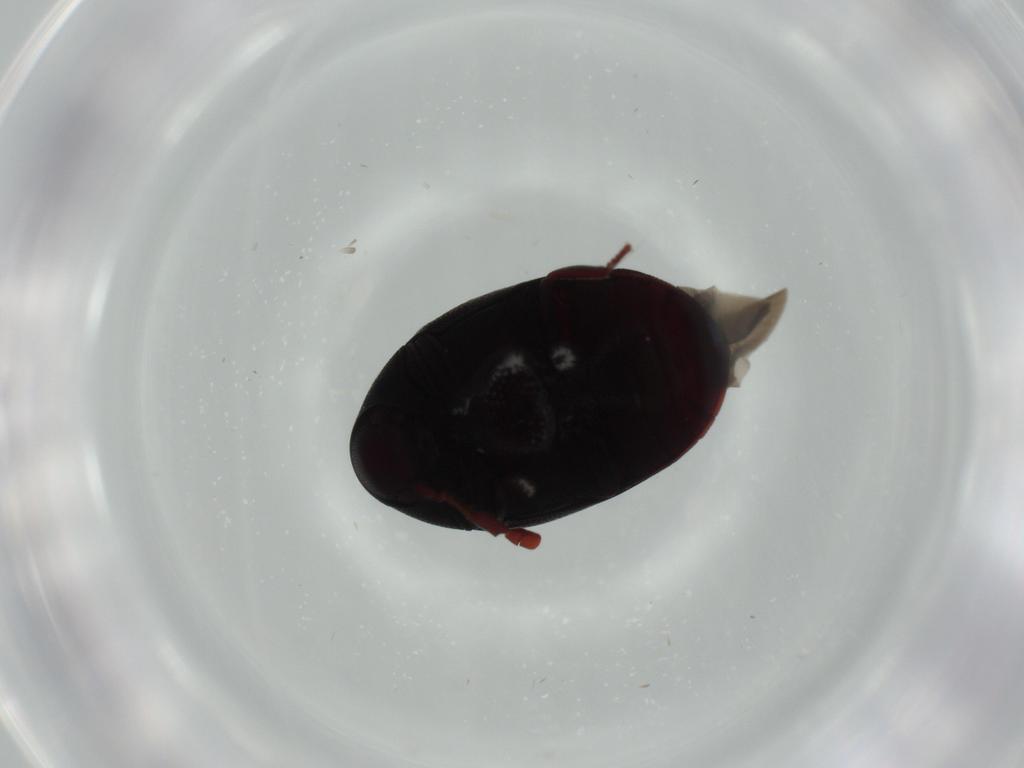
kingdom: Animalia
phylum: Arthropoda
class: Insecta
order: Coleoptera
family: Ptinidae
